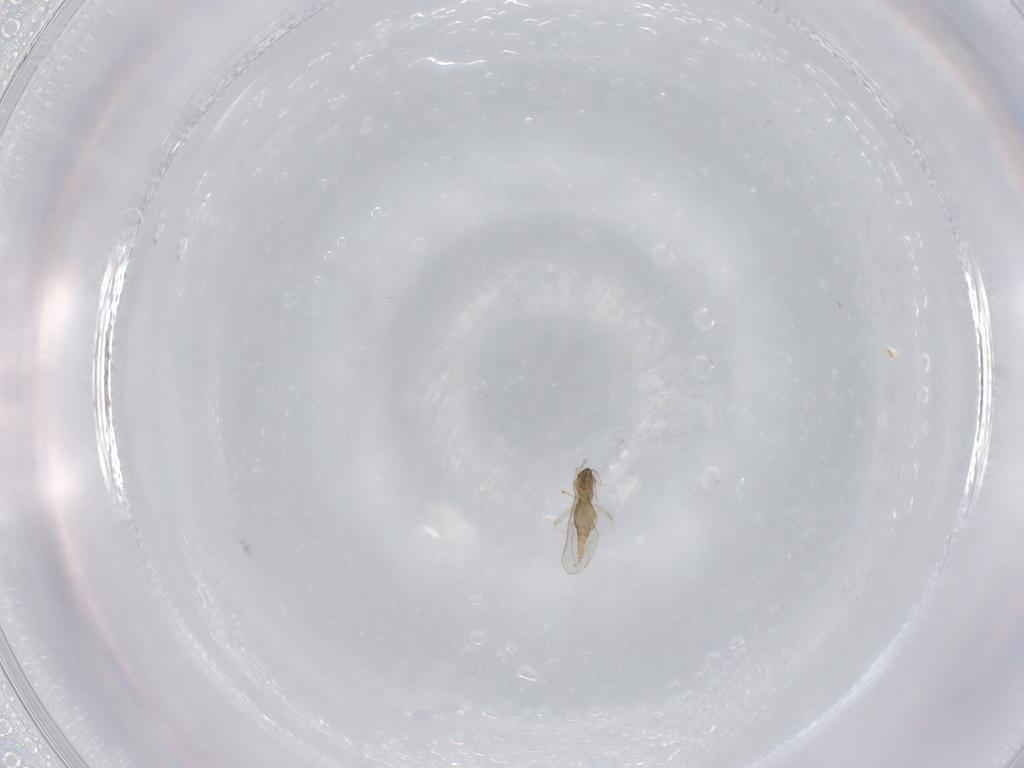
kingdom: Animalia
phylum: Arthropoda
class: Insecta
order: Diptera
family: Cecidomyiidae
